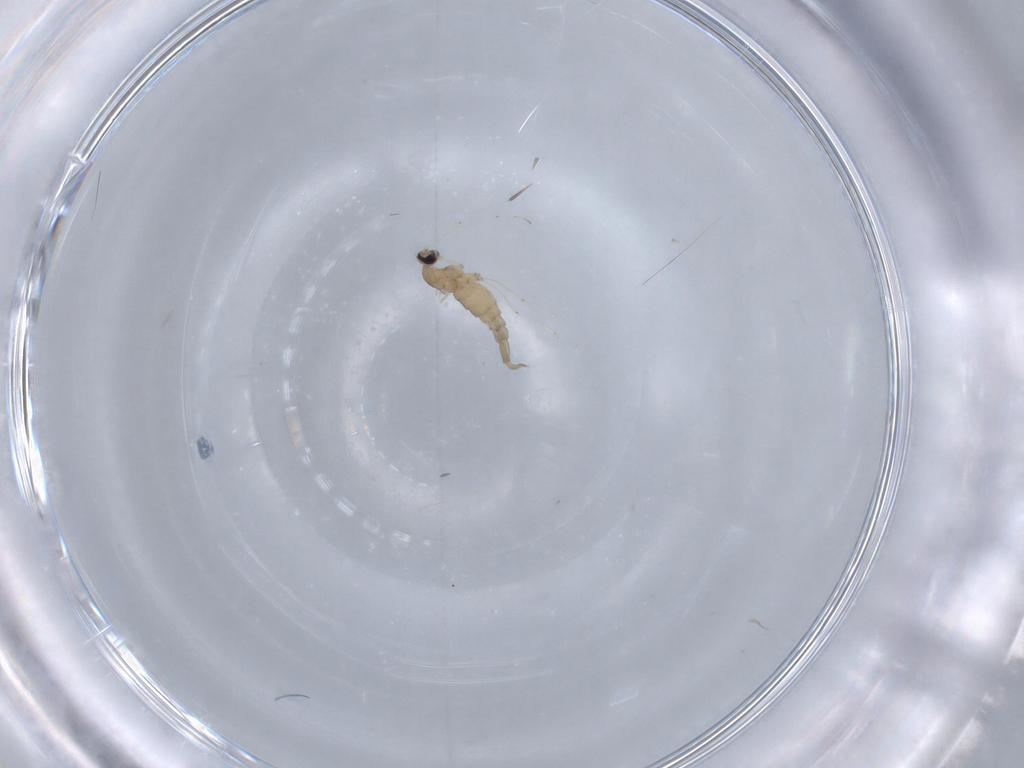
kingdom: Animalia
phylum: Arthropoda
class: Insecta
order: Diptera
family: Cecidomyiidae
